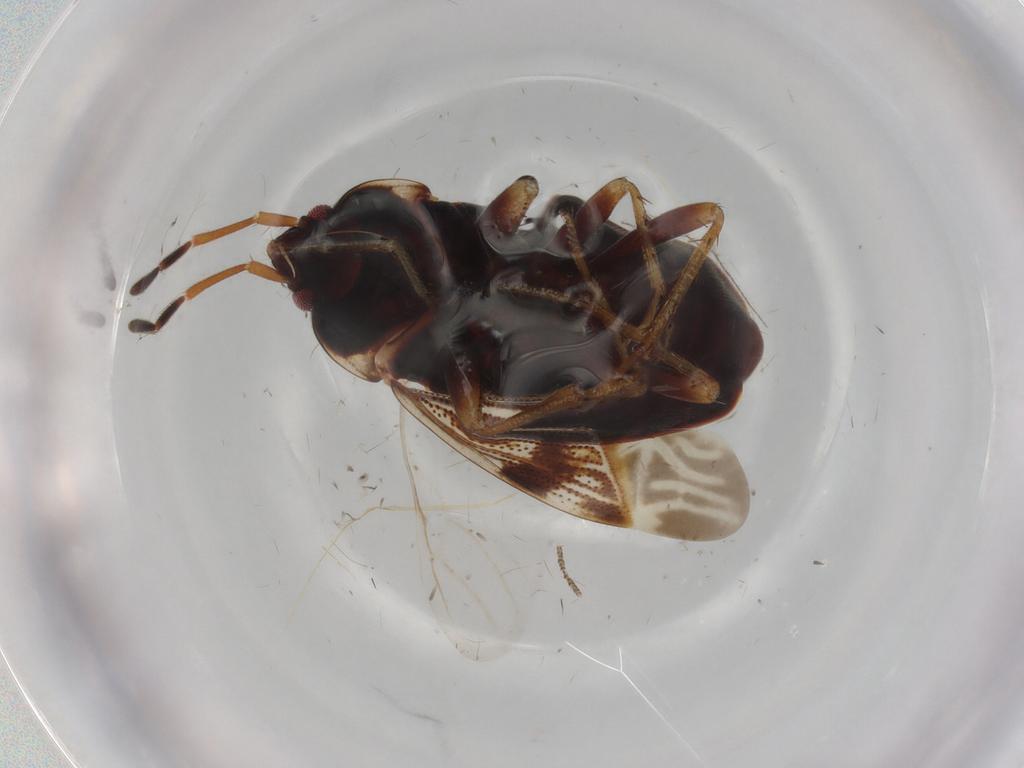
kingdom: Animalia
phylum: Arthropoda
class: Insecta
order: Hemiptera
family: Rhyparochromidae
